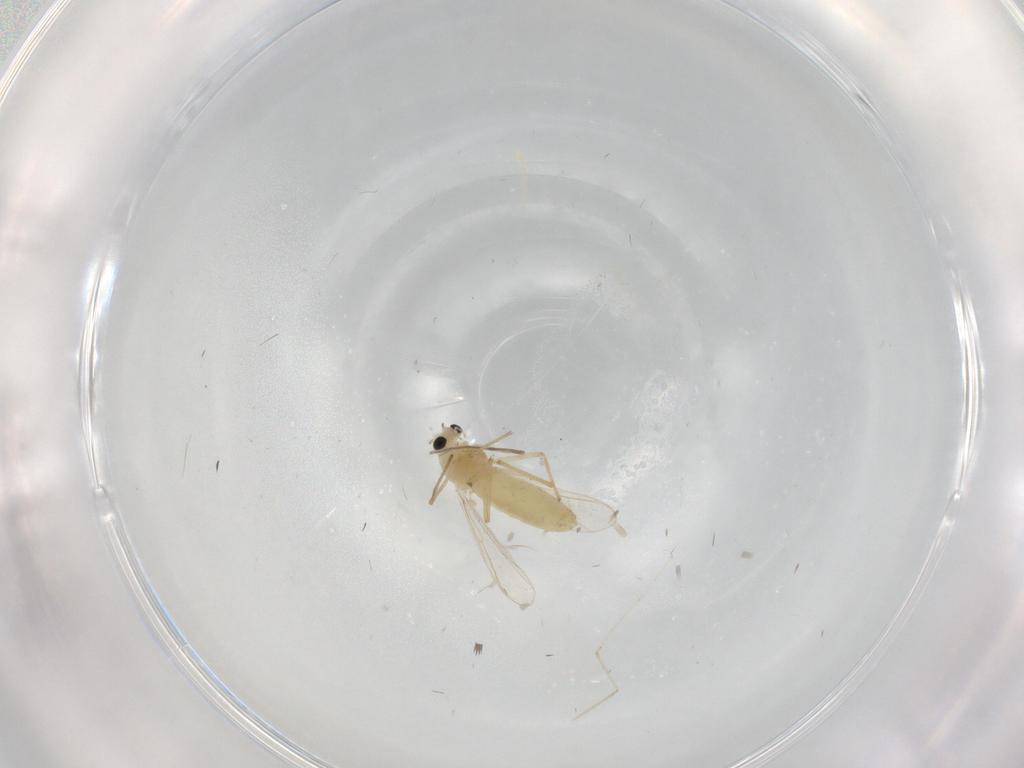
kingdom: Animalia
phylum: Arthropoda
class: Insecta
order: Diptera
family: Chironomidae
